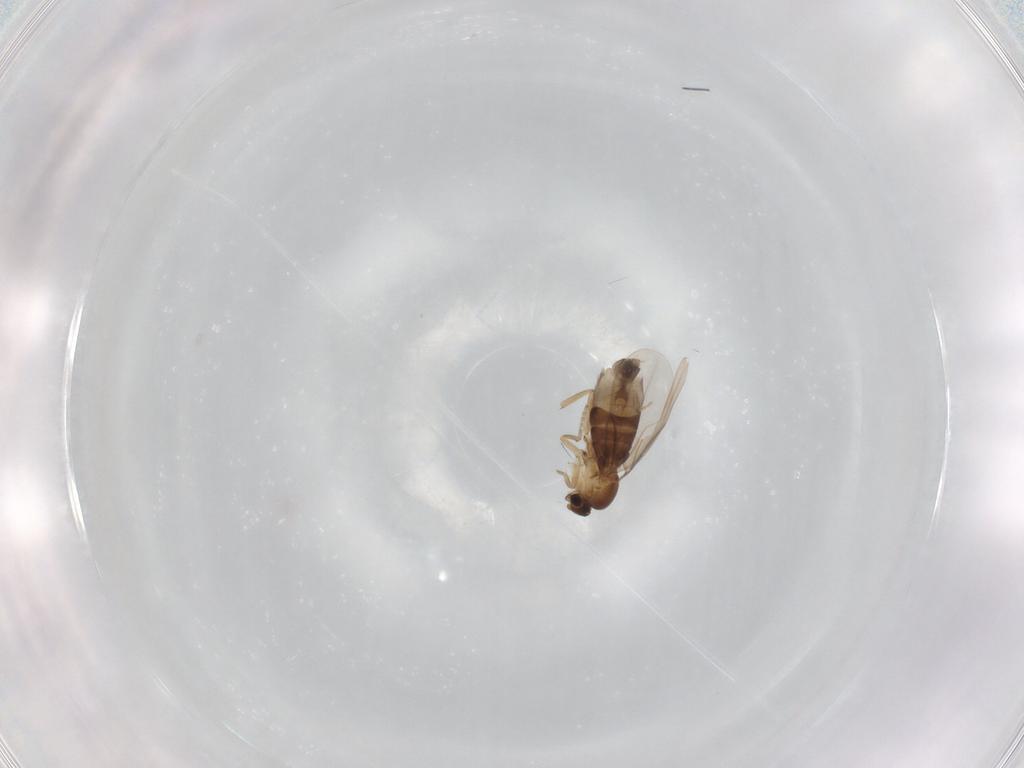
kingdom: Animalia
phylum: Arthropoda
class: Insecta
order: Diptera
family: Phoridae
